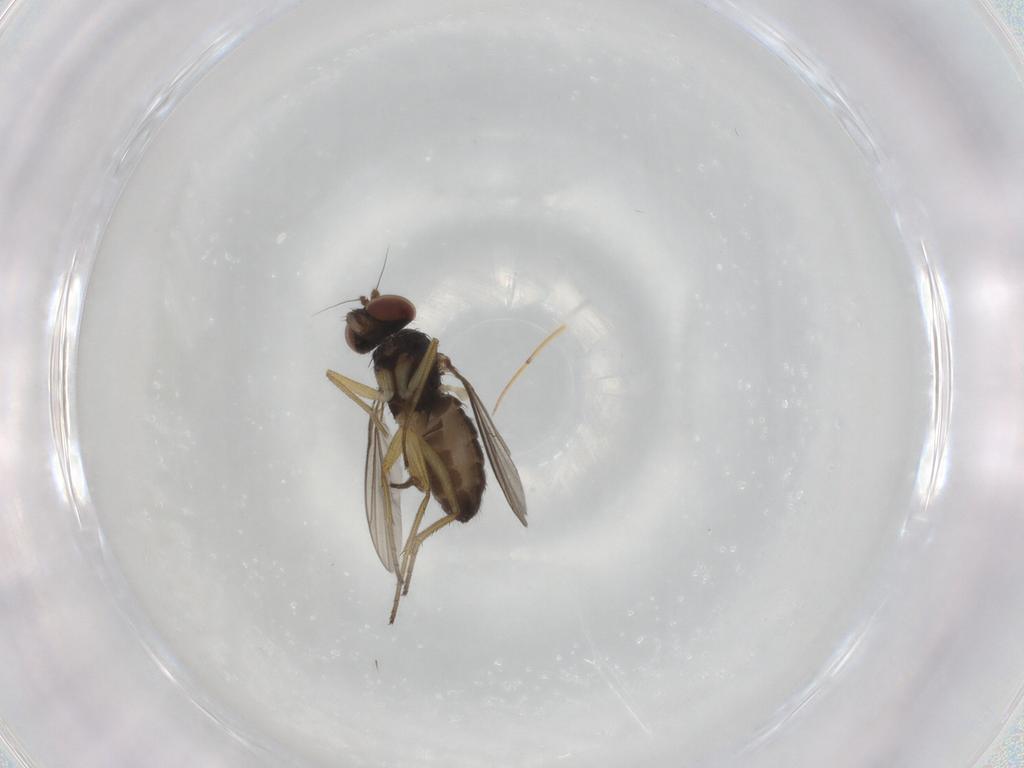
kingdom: Animalia
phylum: Arthropoda
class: Insecta
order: Diptera
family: Dolichopodidae
